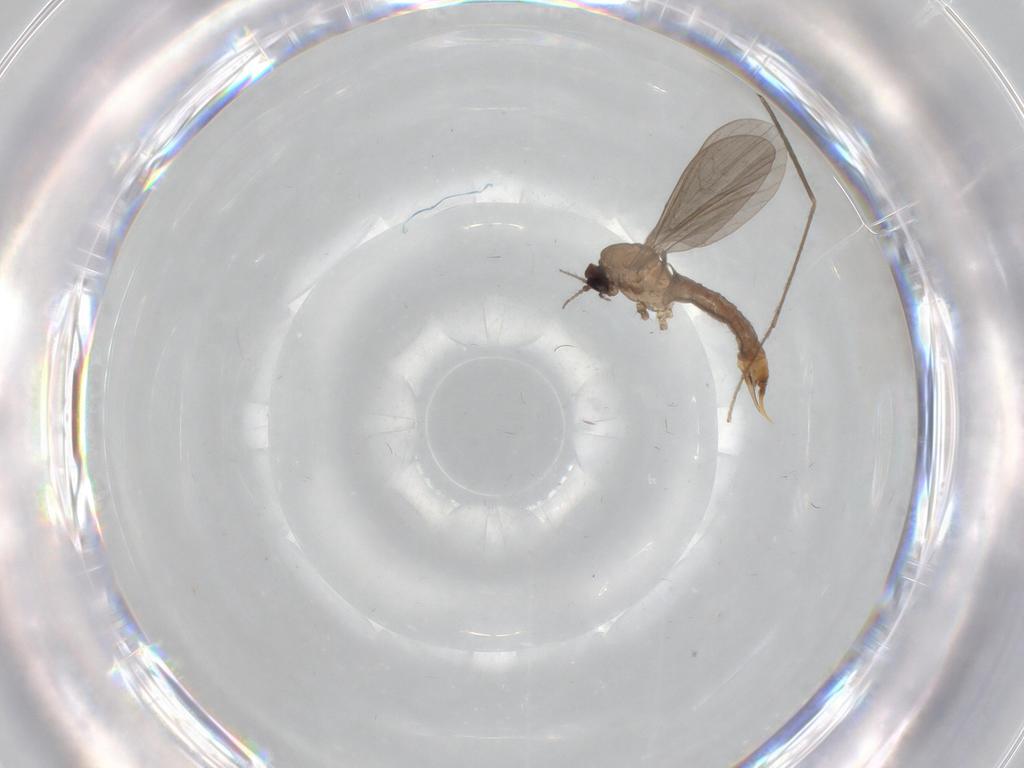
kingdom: Animalia
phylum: Arthropoda
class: Insecta
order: Diptera
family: Limoniidae
